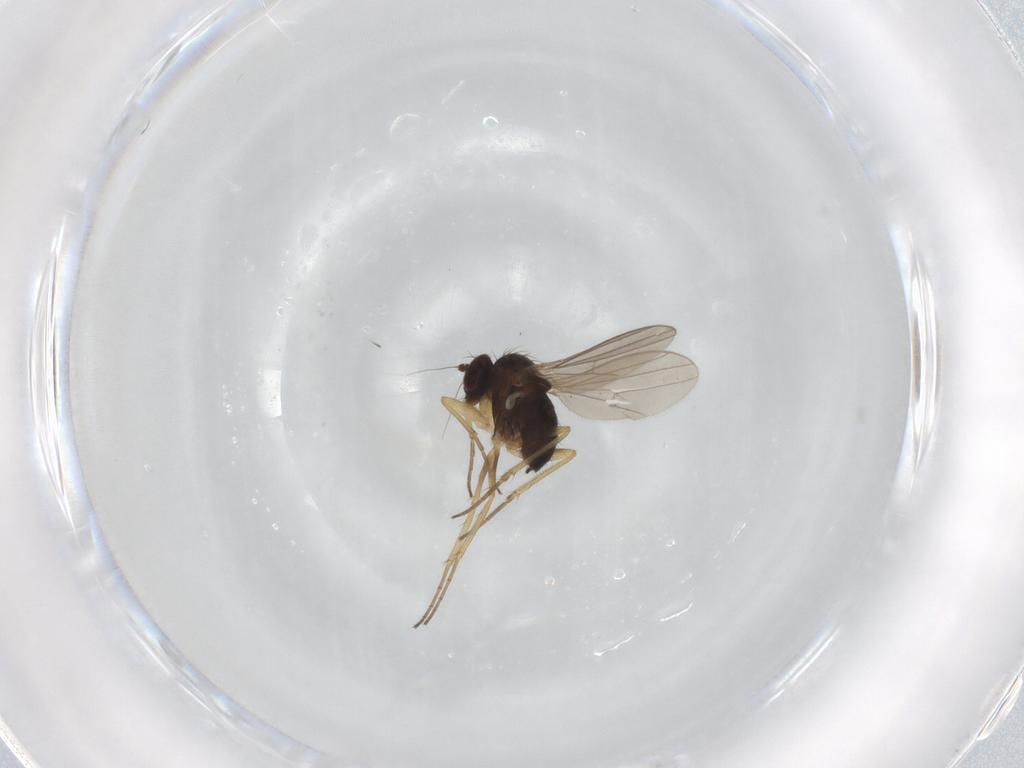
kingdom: Animalia
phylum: Arthropoda
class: Insecta
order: Diptera
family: Dolichopodidae
